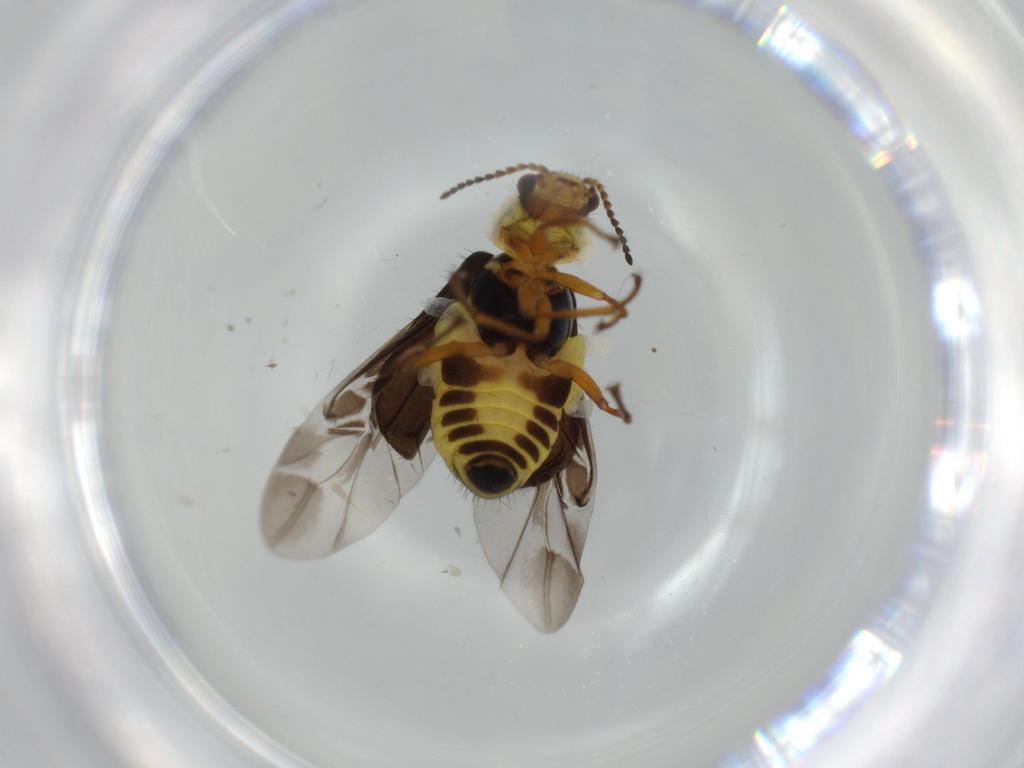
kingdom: Animalia
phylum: Arthropoda
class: Insecta
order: Coleoptera
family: Melyridae
